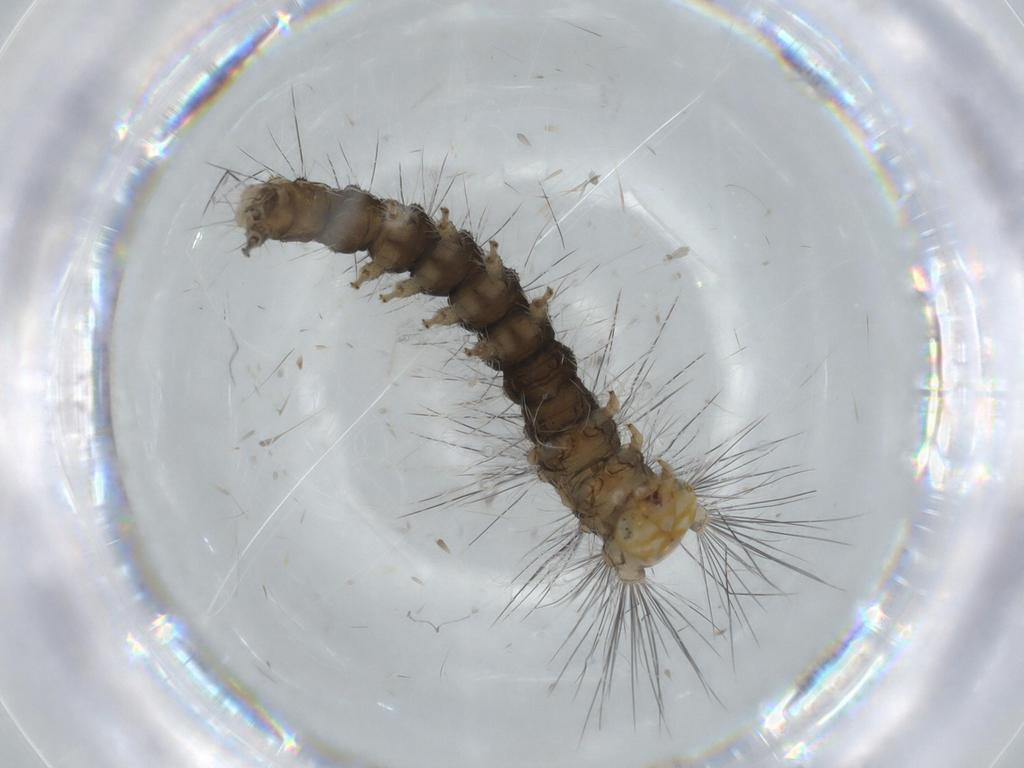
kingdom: Animalia
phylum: Arthropoda
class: Insecta
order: Lepidoptera
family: Apatelodidae
